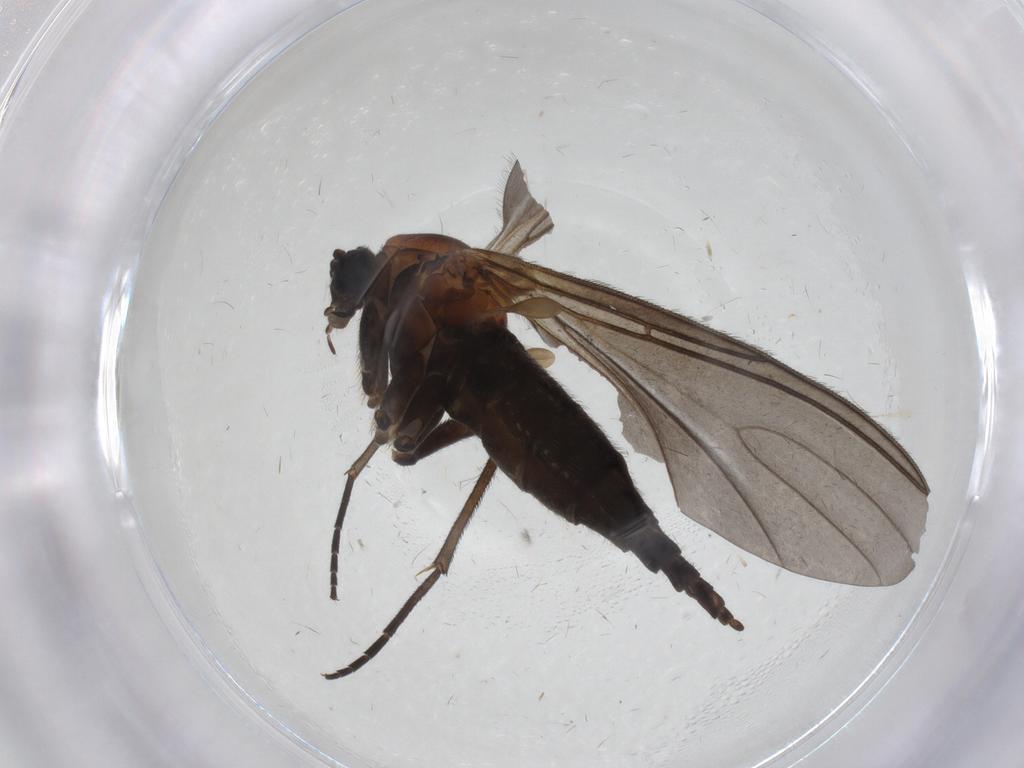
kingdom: Animalia
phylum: Arthropoda
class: Insecta
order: Diptera
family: Sciaridae
